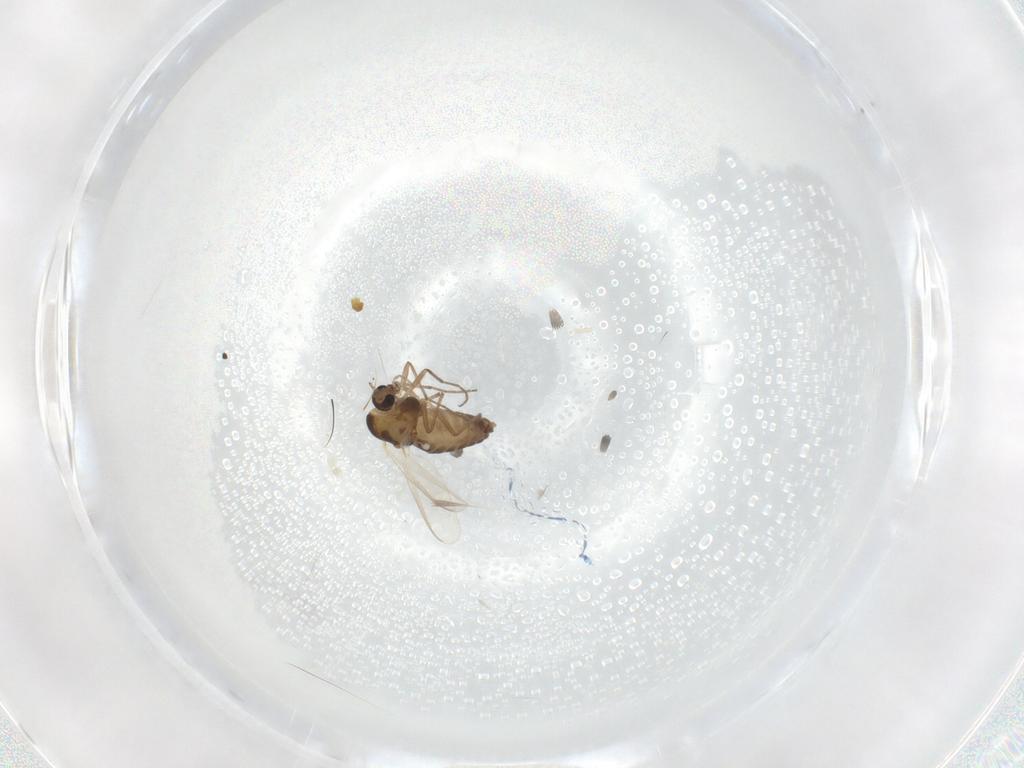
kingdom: Animalia
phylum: Arthropoda
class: Insecta
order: Diptera
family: Chironomidae
